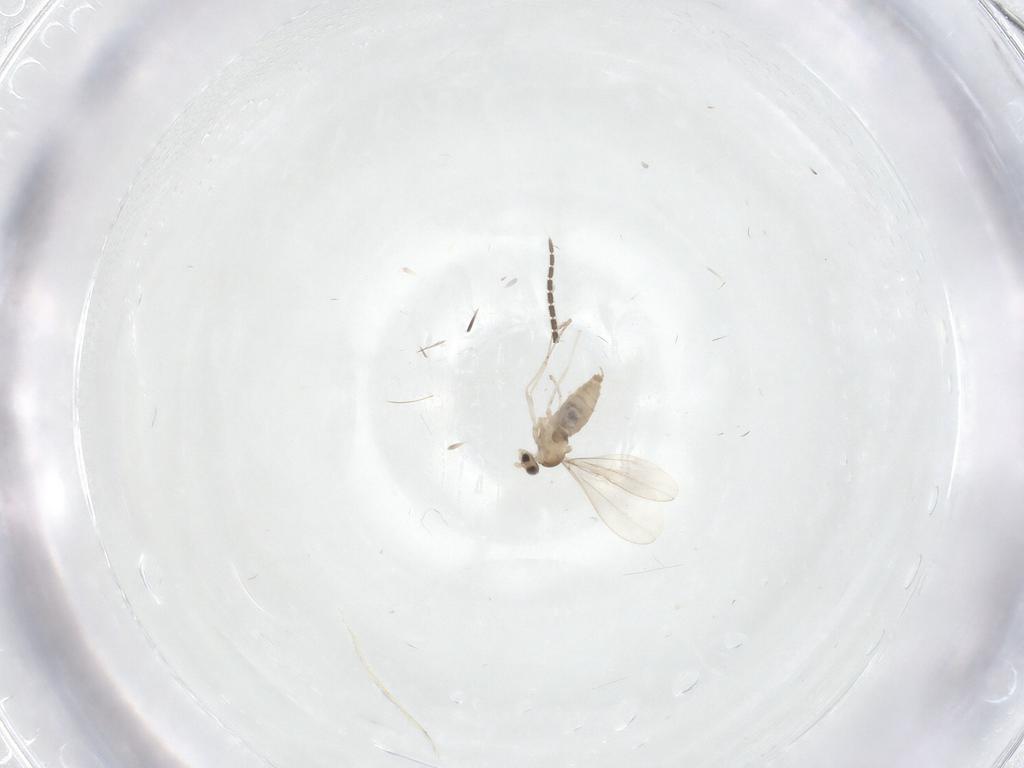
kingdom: Animalia
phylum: Arthropoda
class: Insecta
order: Diptera
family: Cecidomyiidae
